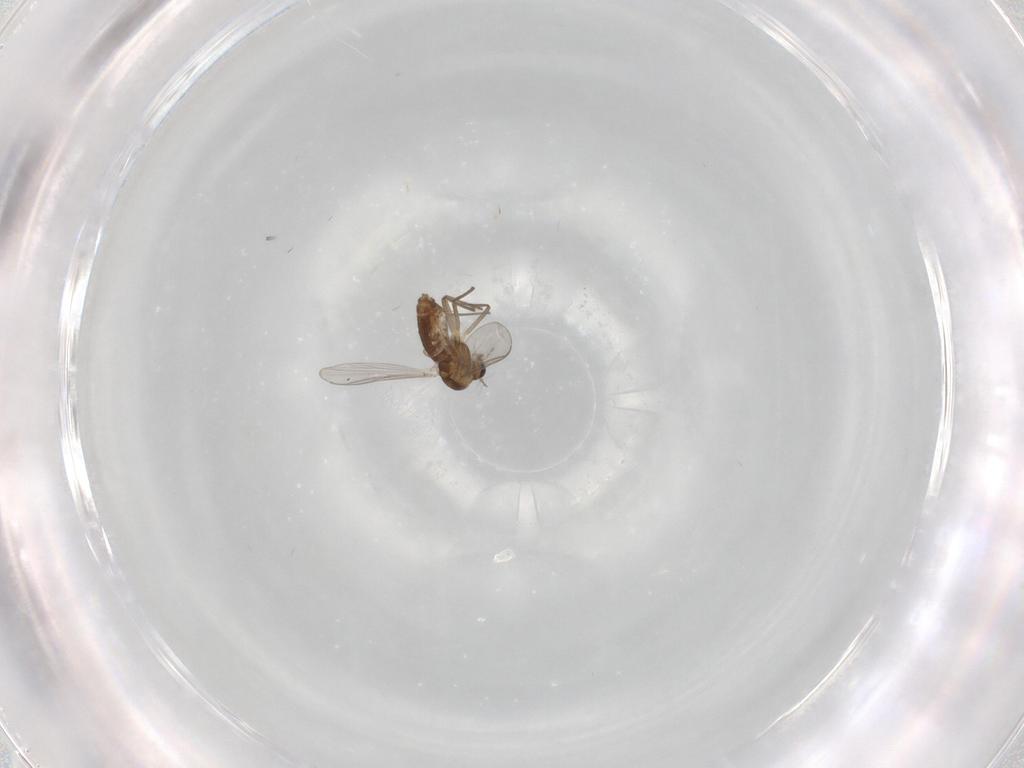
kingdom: Animalia
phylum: Arthropoda
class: Insecta
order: Diptera
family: Chironomidae
